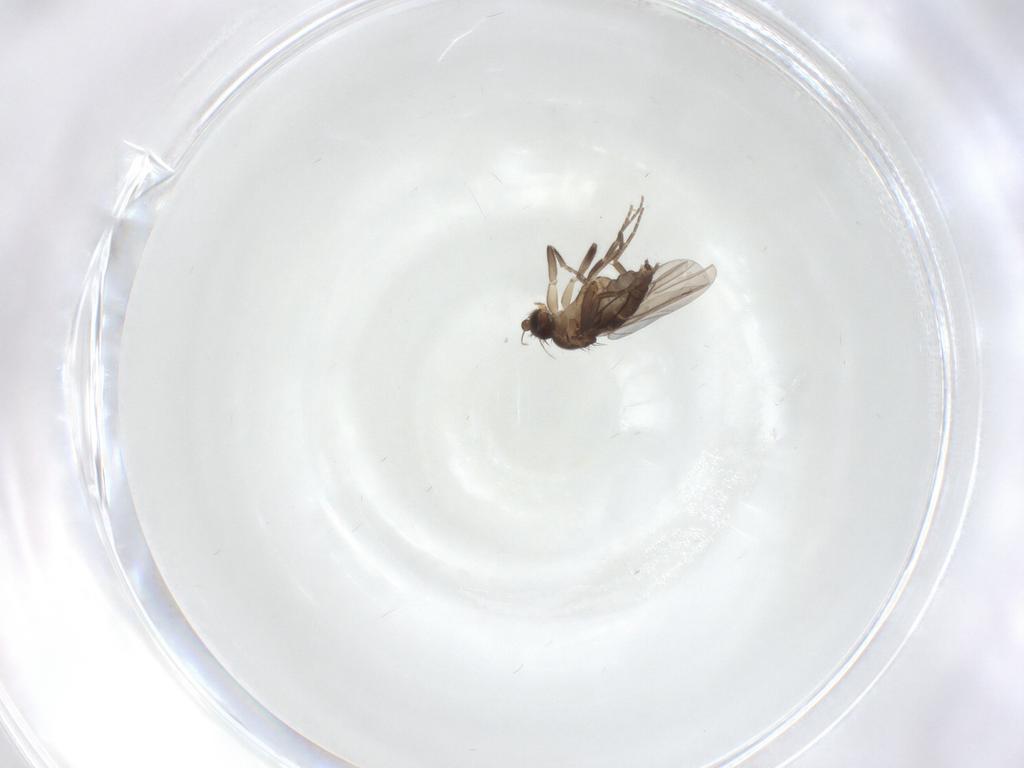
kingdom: Animalia
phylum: Arthropoda
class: Insecta
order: Diptera
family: Phoridae
